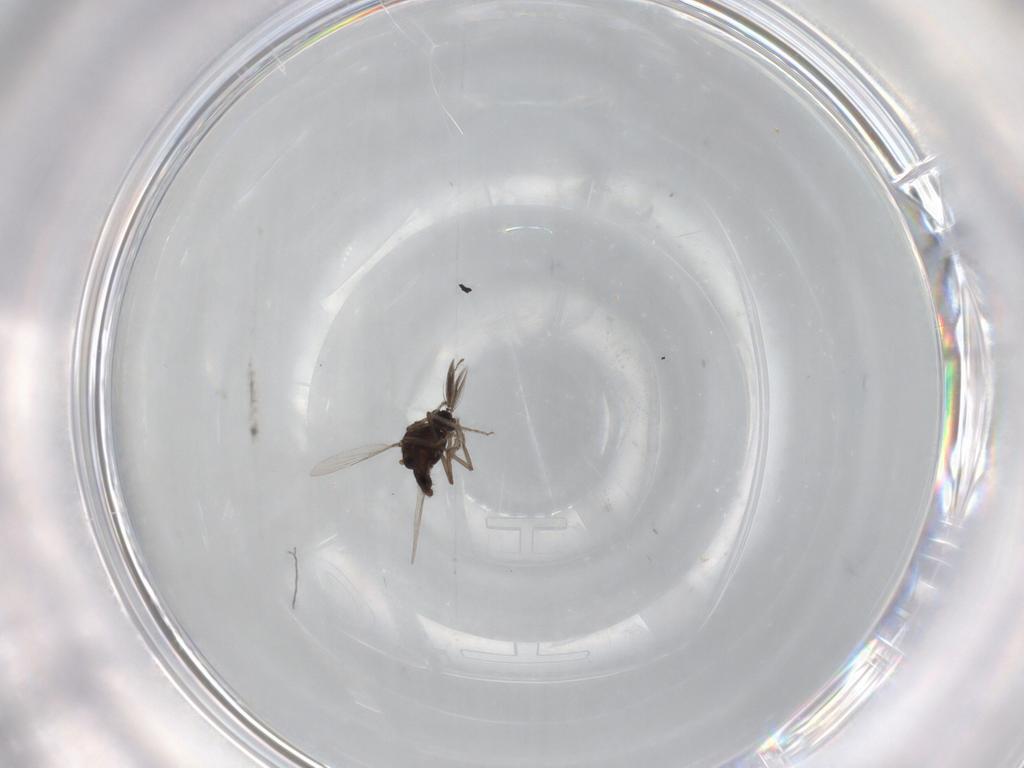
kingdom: Animalia
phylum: Arthropoda
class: Insecta
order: Diptera
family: Ceratopogonidae
